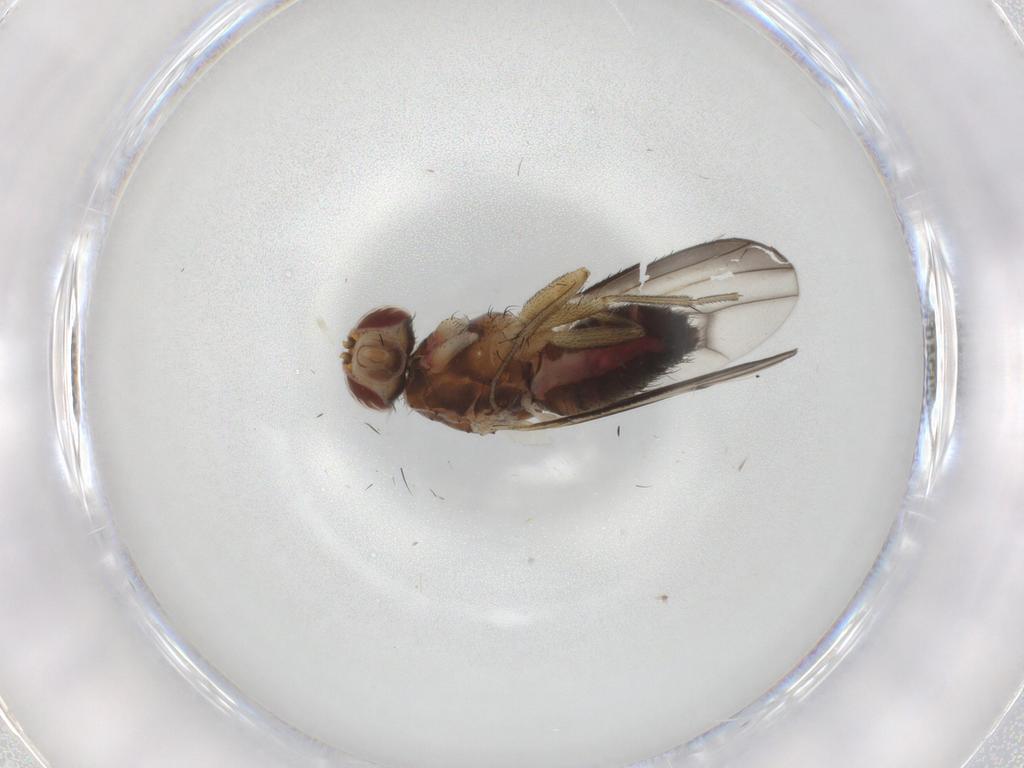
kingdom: Animalia
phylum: Arthropoda
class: Insecta
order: Diptera
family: Heleomyzidae
